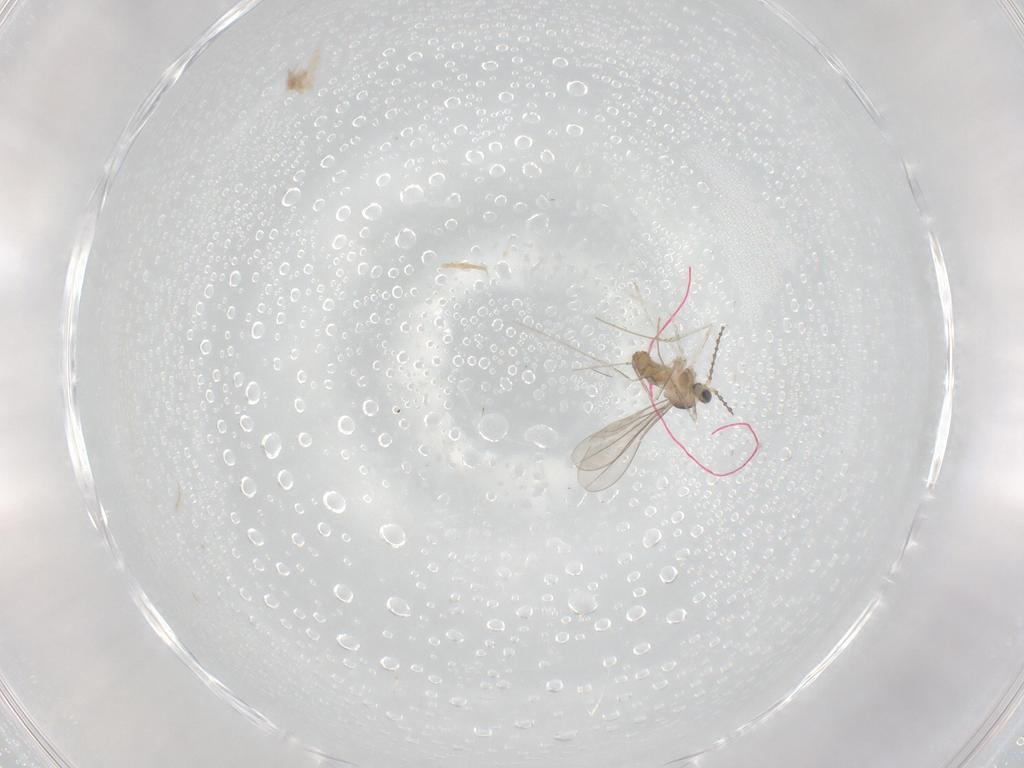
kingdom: Animalia
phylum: Arthropoda
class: Insecta
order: Diptera
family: Cecidomyiidae
